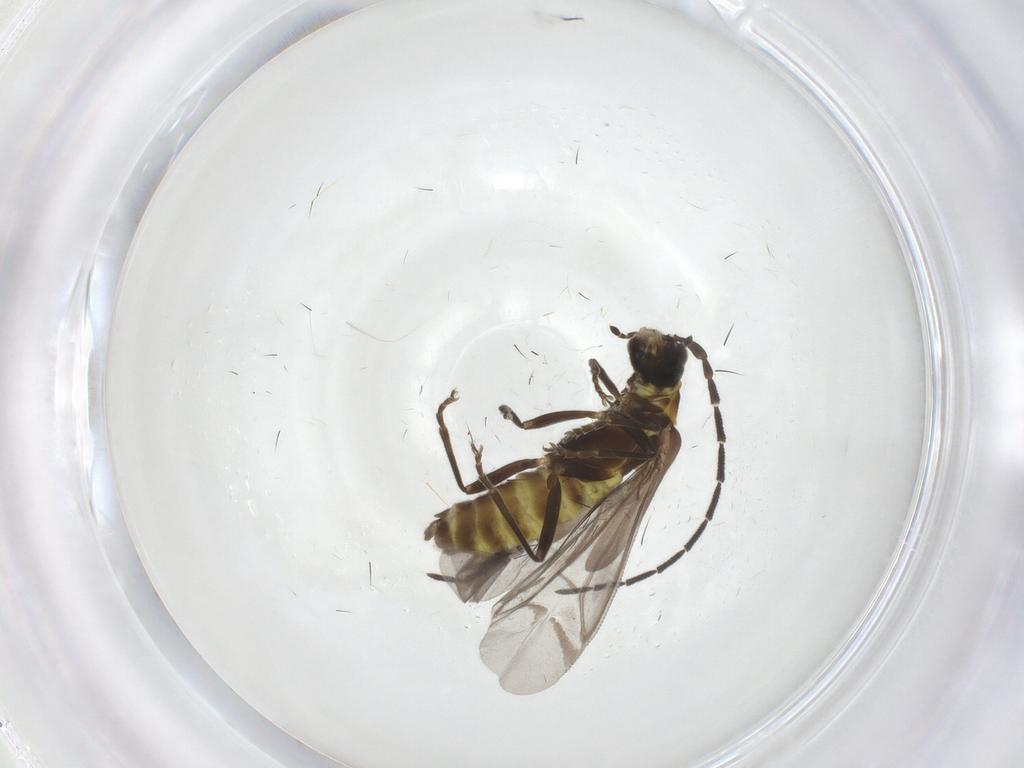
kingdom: Animalia
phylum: Arthropoda
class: Insecta
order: Coleoptera
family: Cantharidae
